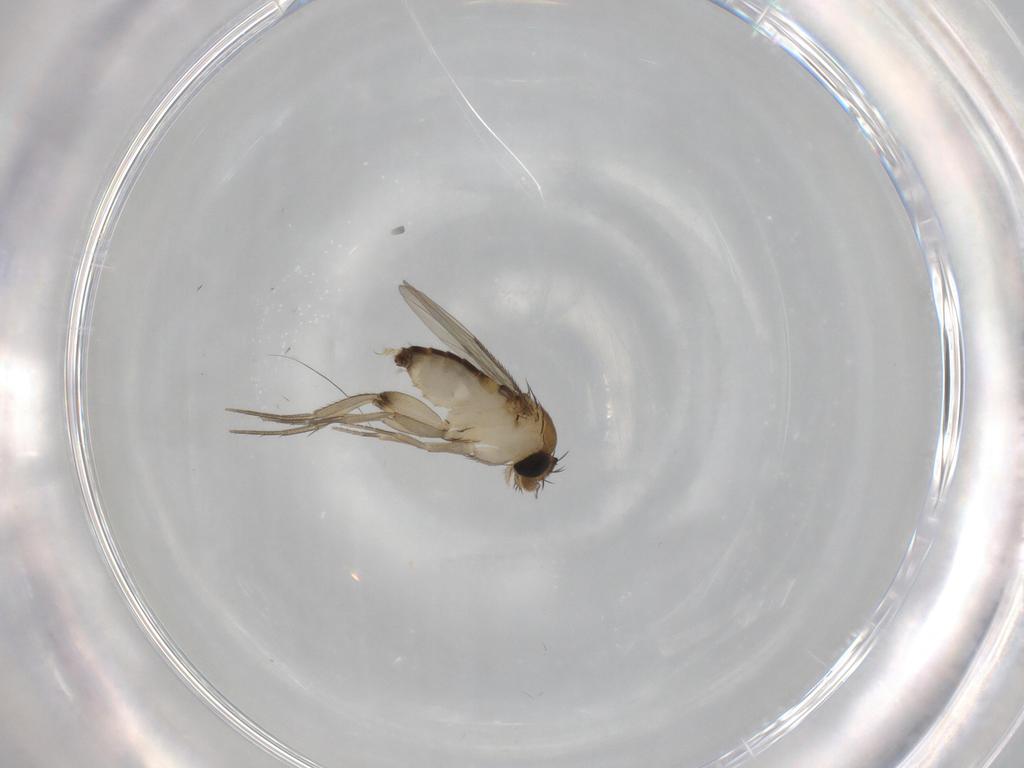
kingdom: Animalia
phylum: Arthropoda
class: Insecta
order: Diptera
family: Phoridae
